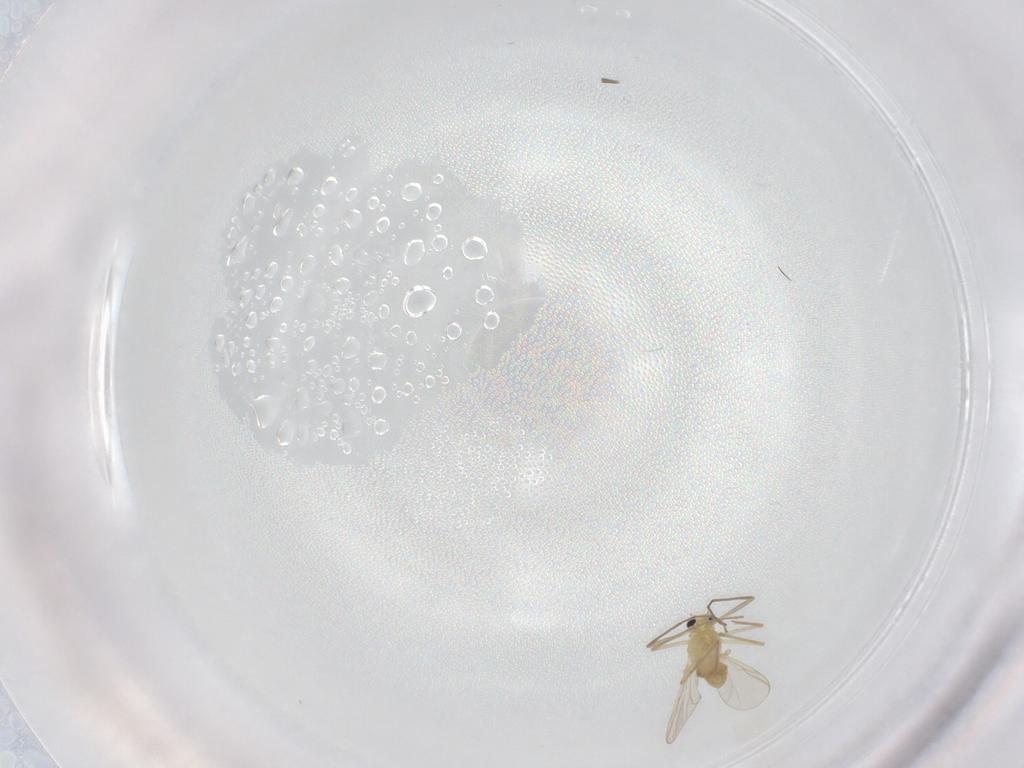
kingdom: Animalia
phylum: Arthropoda
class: Insecta
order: Diptera
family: Chironomidae
